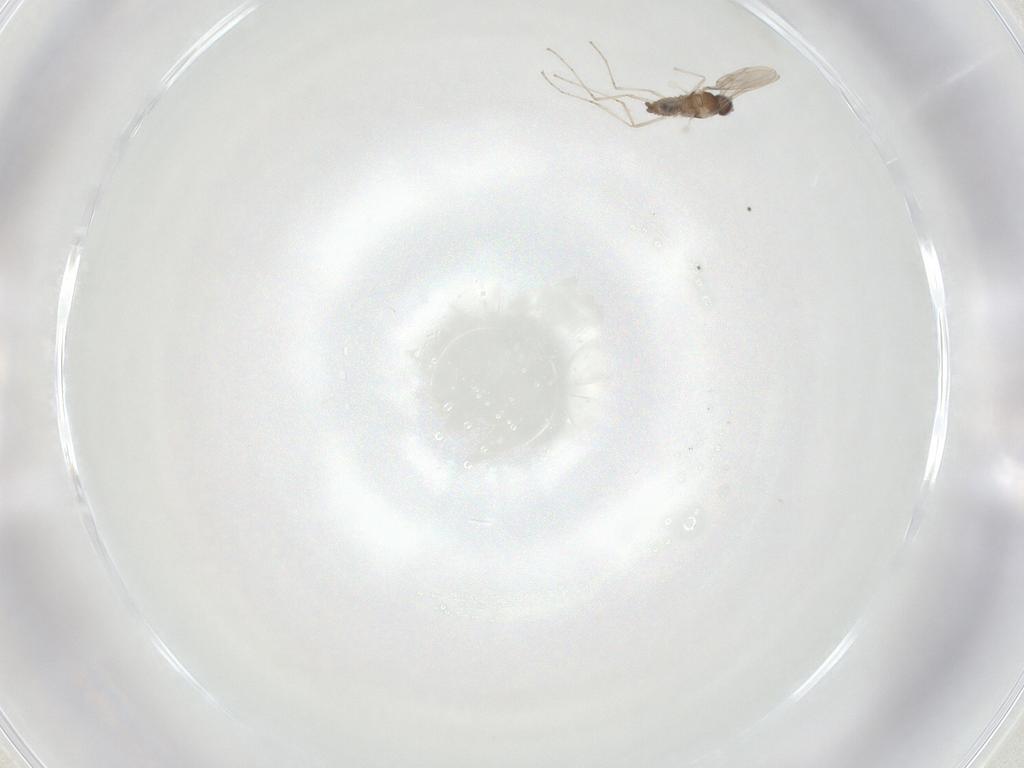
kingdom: Animalia
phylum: Arthropoda
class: Insecta
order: Diptera
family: Cecidomyiidae
